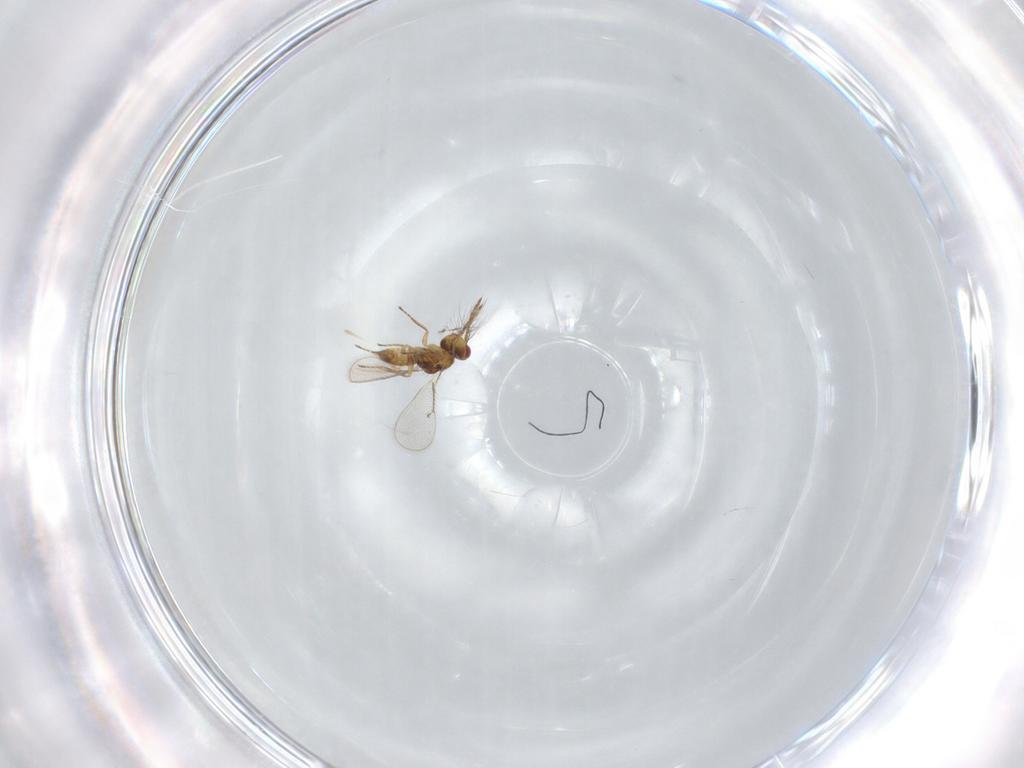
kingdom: Animalia
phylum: Arthropoda
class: Insecta
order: Hymenoptera
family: Eulophidae
